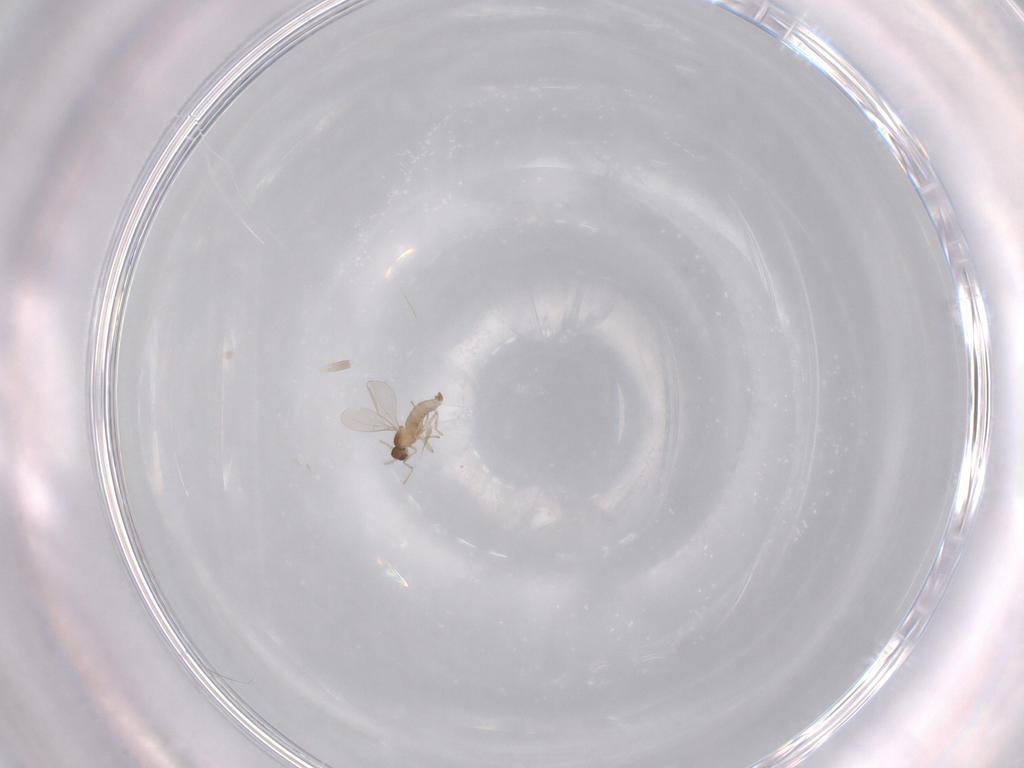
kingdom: Animalia
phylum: Arthropoda
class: Insecta
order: Diptera
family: Cecidomyiidae
